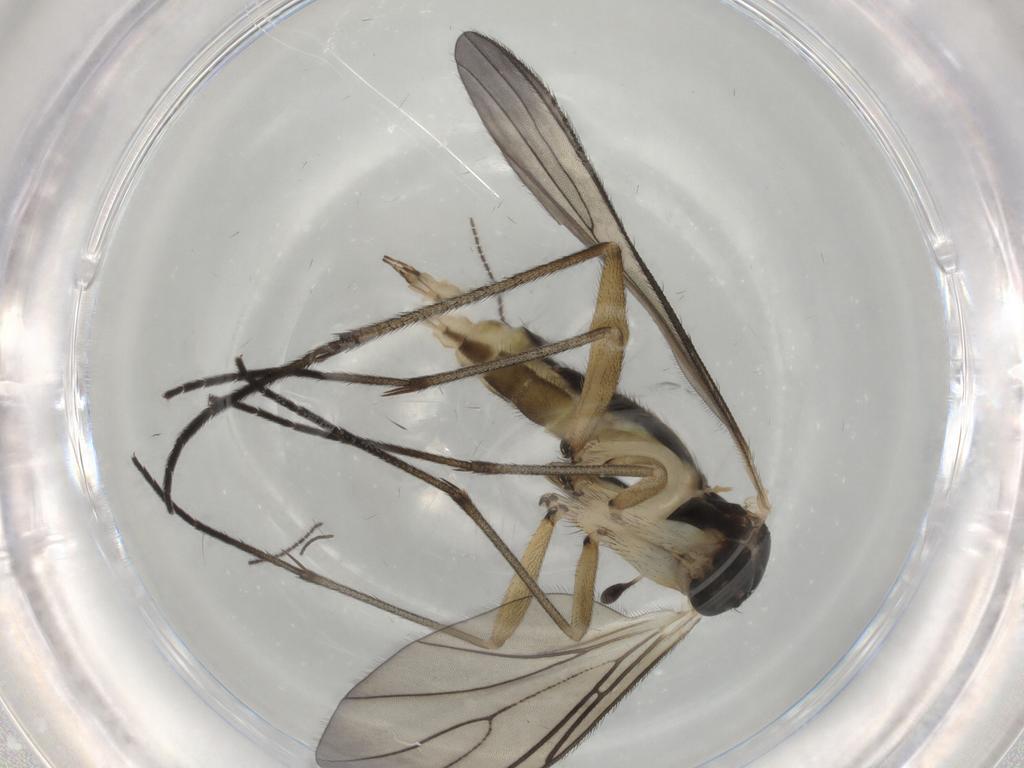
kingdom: Animalia
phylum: Arthropoda
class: Insecta
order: Diptera
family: Sciaridae
